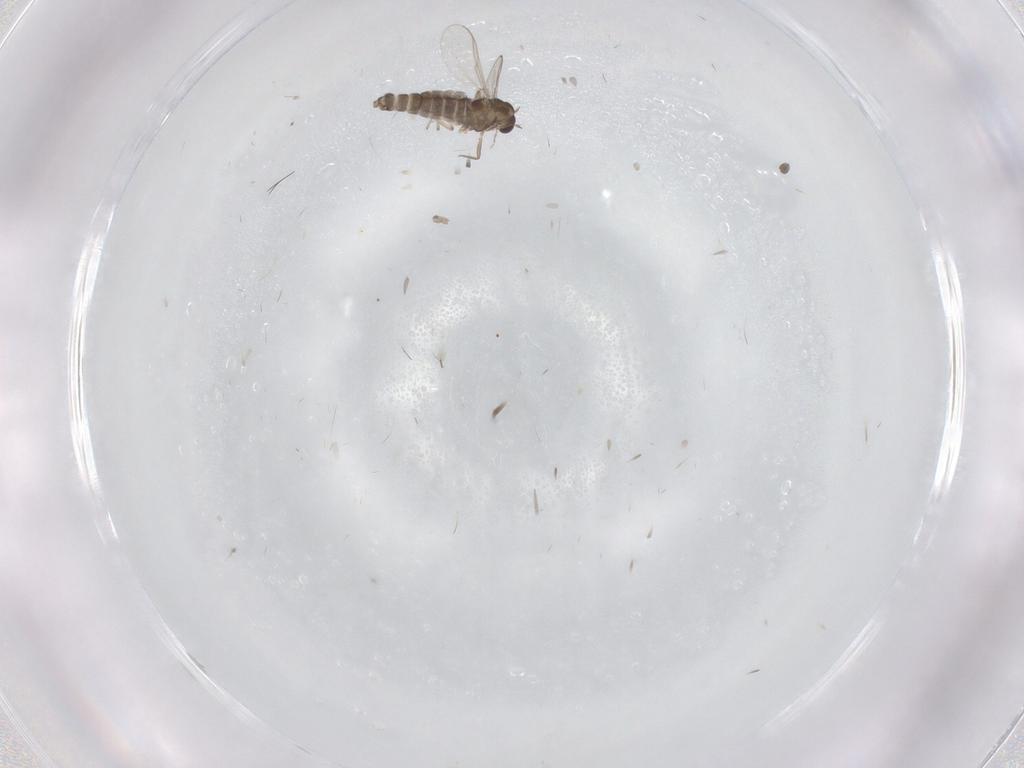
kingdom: Animalia
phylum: Arthropoda
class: Insecta
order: Diptera
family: Chironomidae
